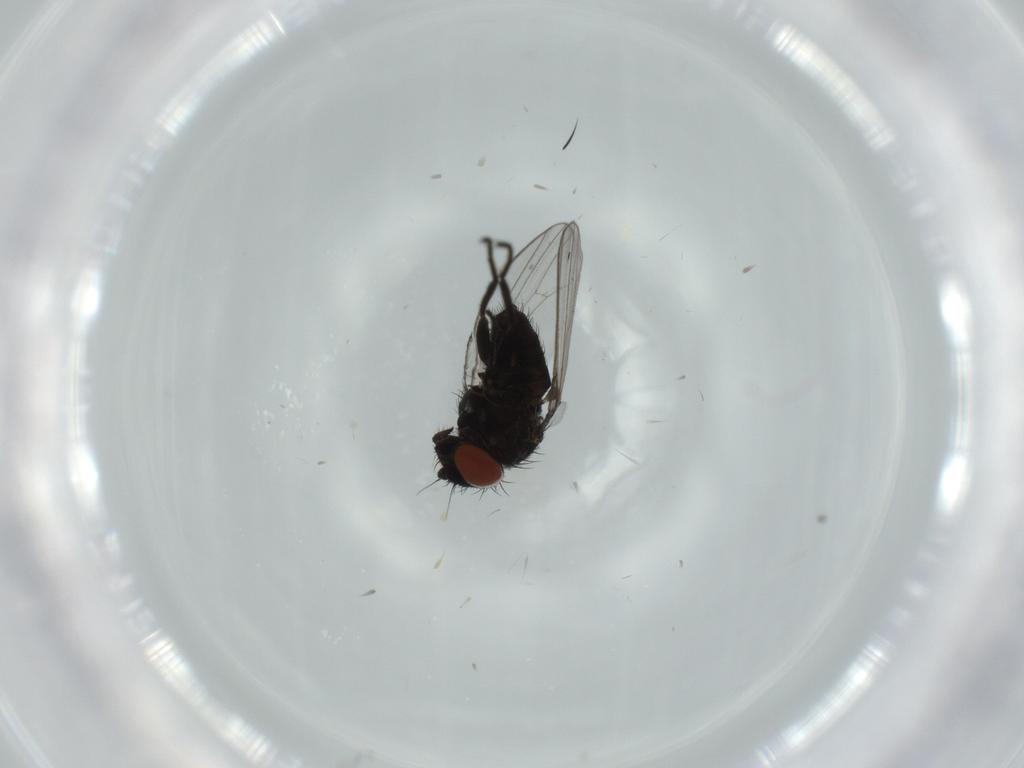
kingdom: Animalia
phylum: Arthropoda
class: Insecta
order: Diptera
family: Milichiidae
